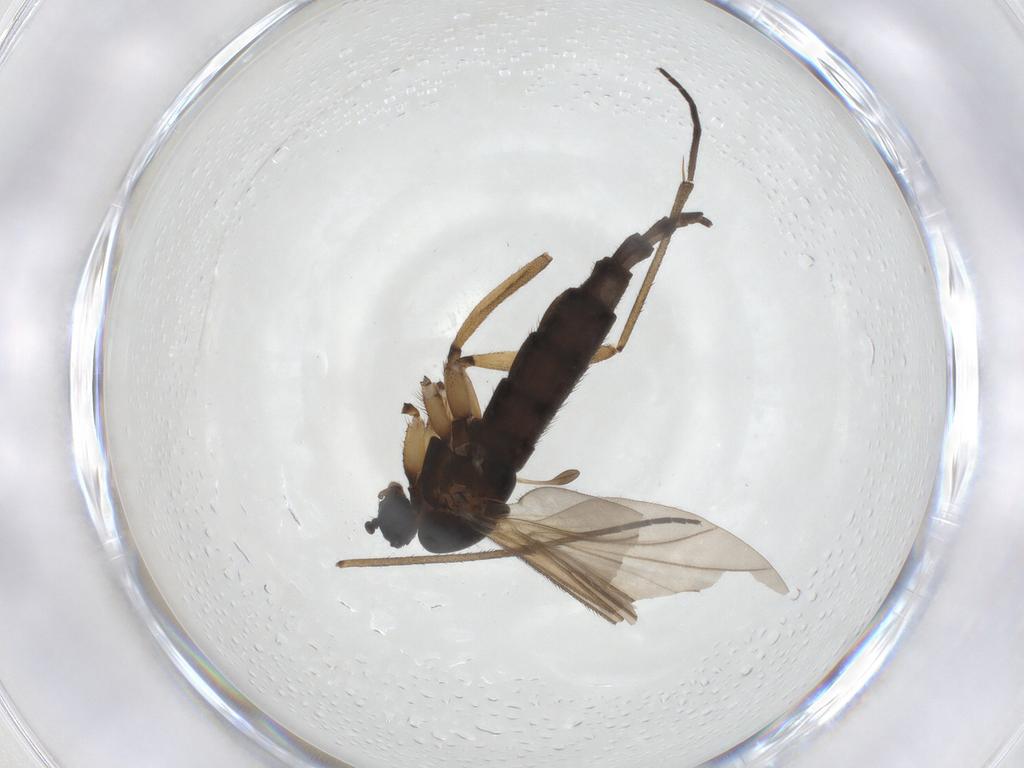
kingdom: Animalia
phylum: Arthropoda
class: Insecta
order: Diptera
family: Sciaridae
